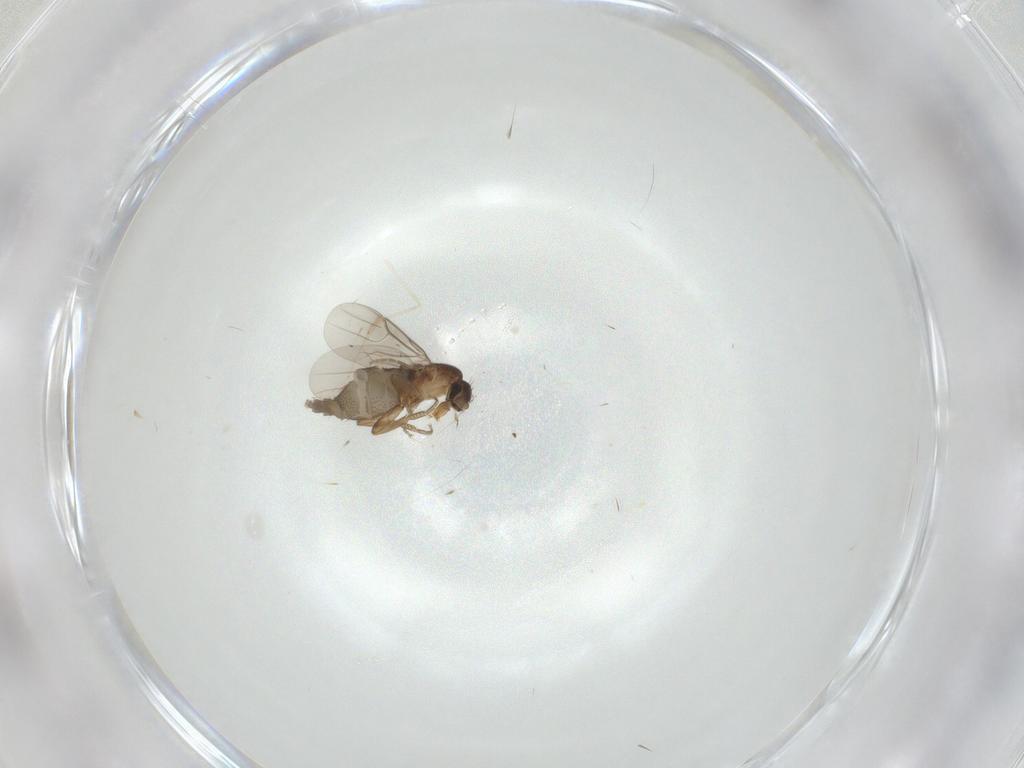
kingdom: Animalia
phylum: Arthropoda
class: Insecta
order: Diptera
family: Phoridae
